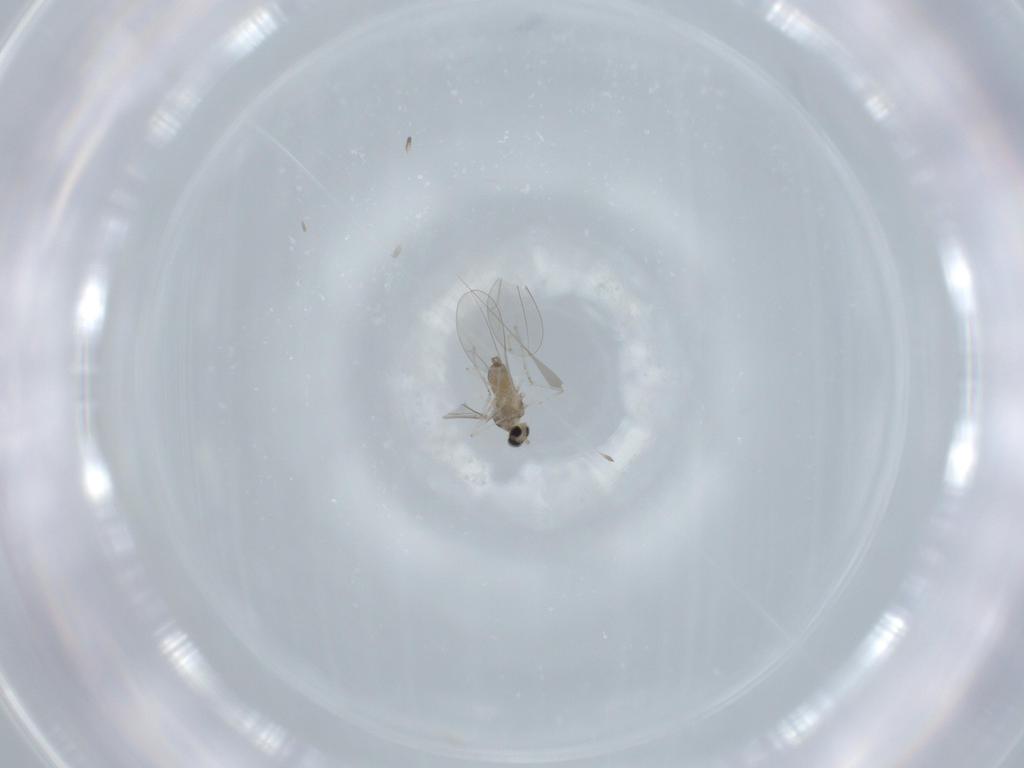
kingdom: Animalia
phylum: Arthropoda
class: Insecta
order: Diptera
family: Cecidomyiidae
